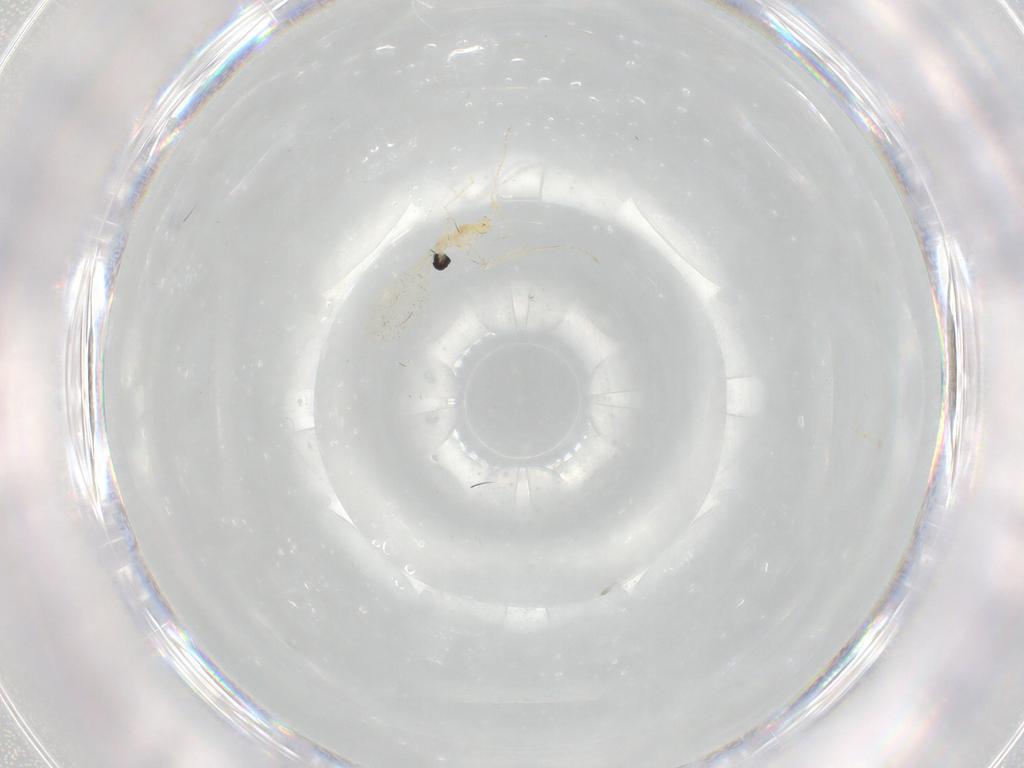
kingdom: Animalia
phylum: Arthropoda
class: Insecta
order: Diptera
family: Cecidomyiidae
